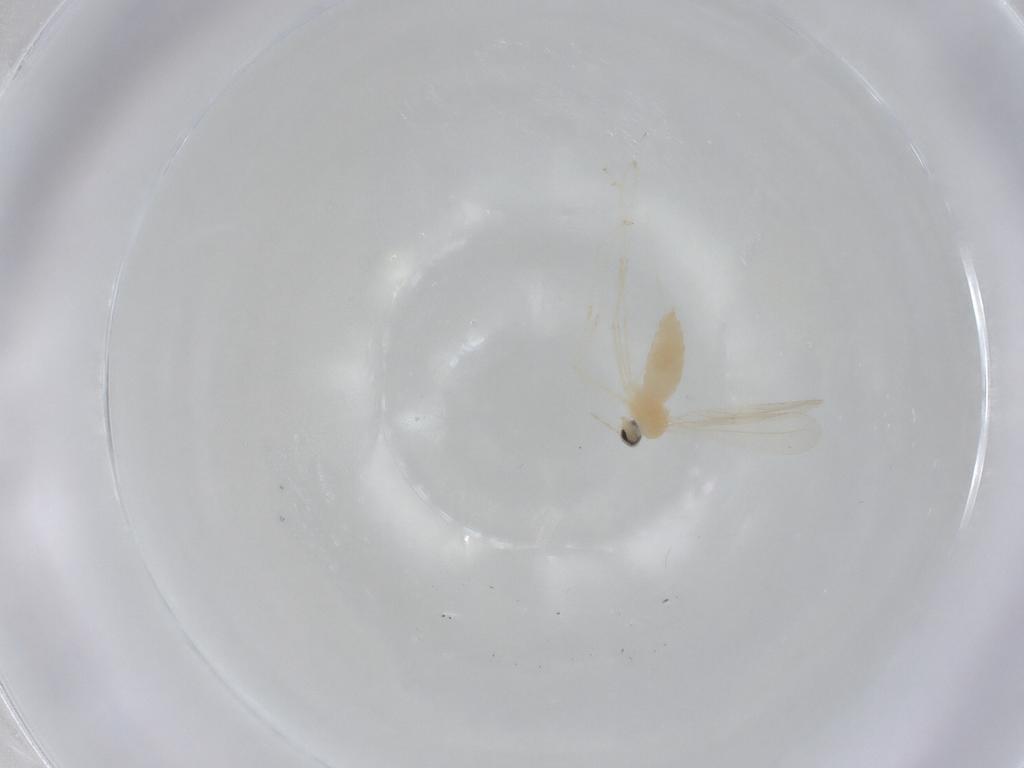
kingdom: Animalia
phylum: Arthropoda
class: Insecta
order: Diptera
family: Cecidomyiidae
